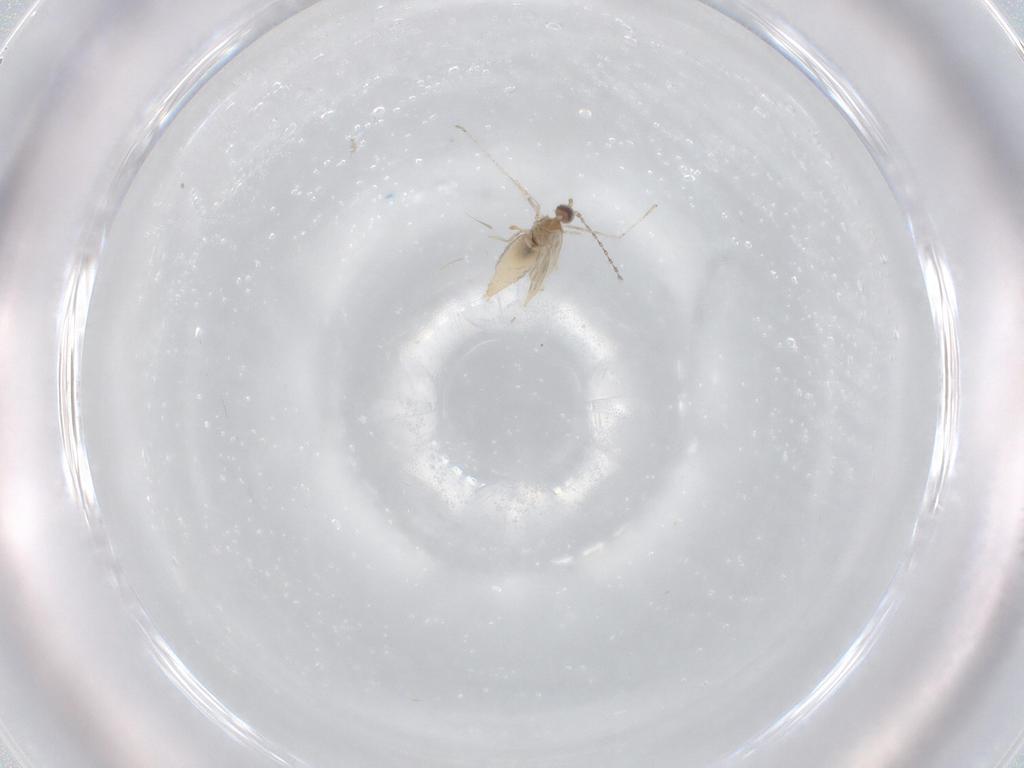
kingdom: Animalia
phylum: Arthropoda
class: Insecta
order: Diptera
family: Cecidomyiidae
